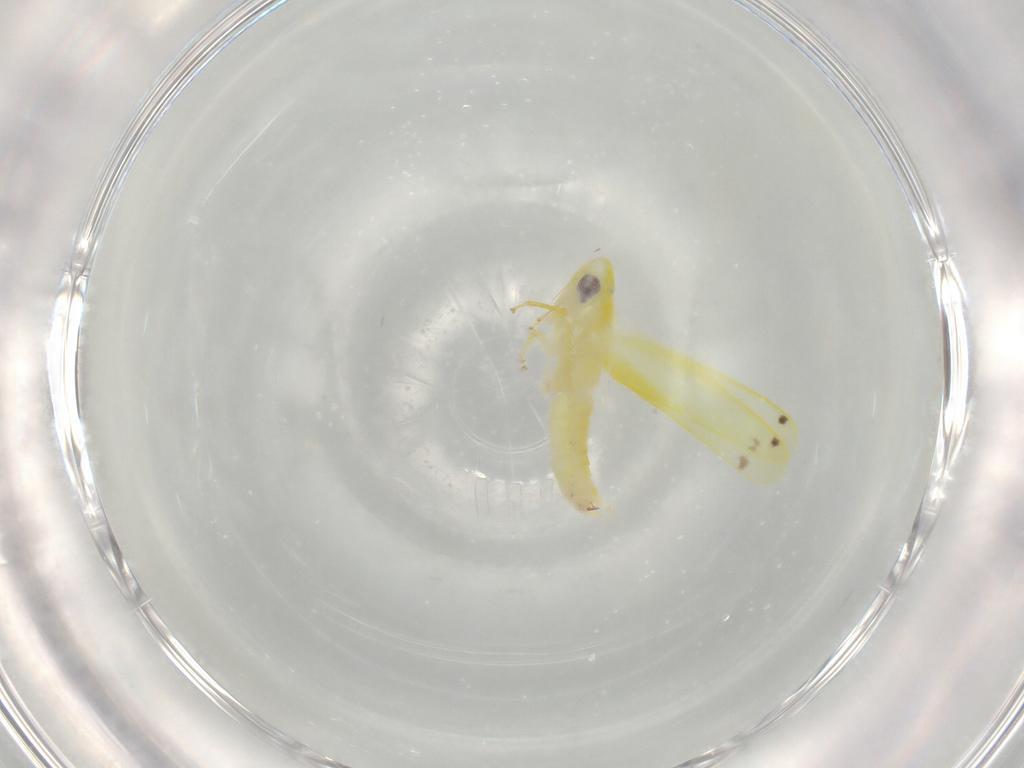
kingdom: Animalia
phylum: Arthropoda
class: Insecta
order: Hemiptera
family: Cicadellidae
